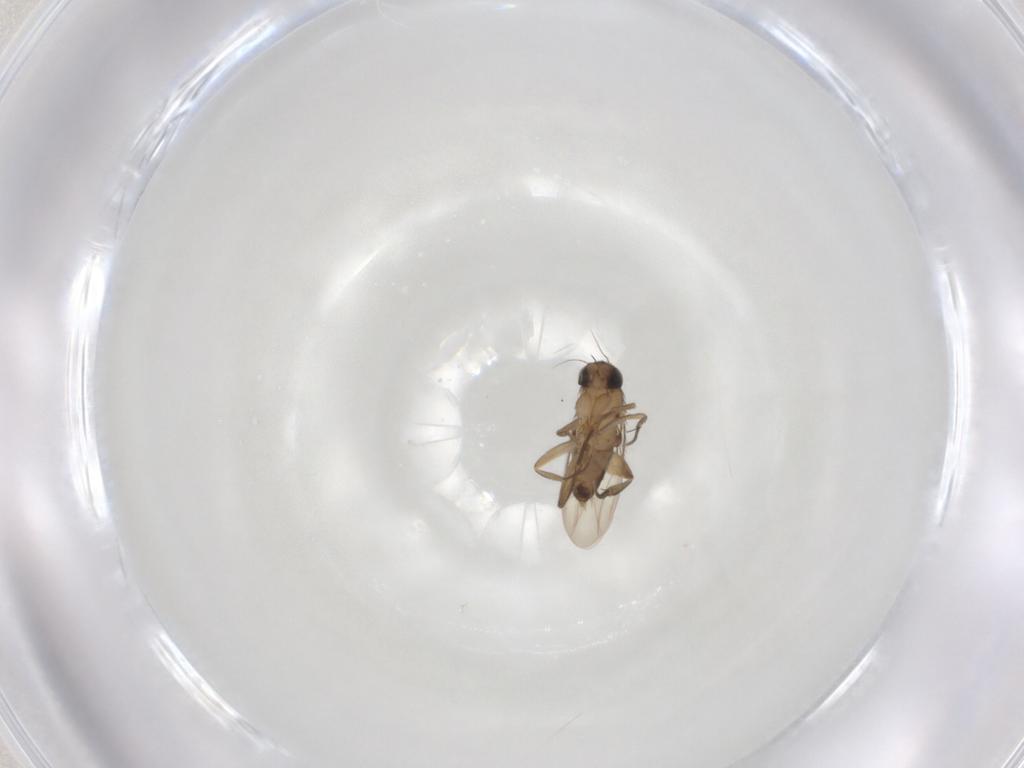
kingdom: Animalia
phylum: Arthropoda
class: Insecta
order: Diptera
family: Phoridae
